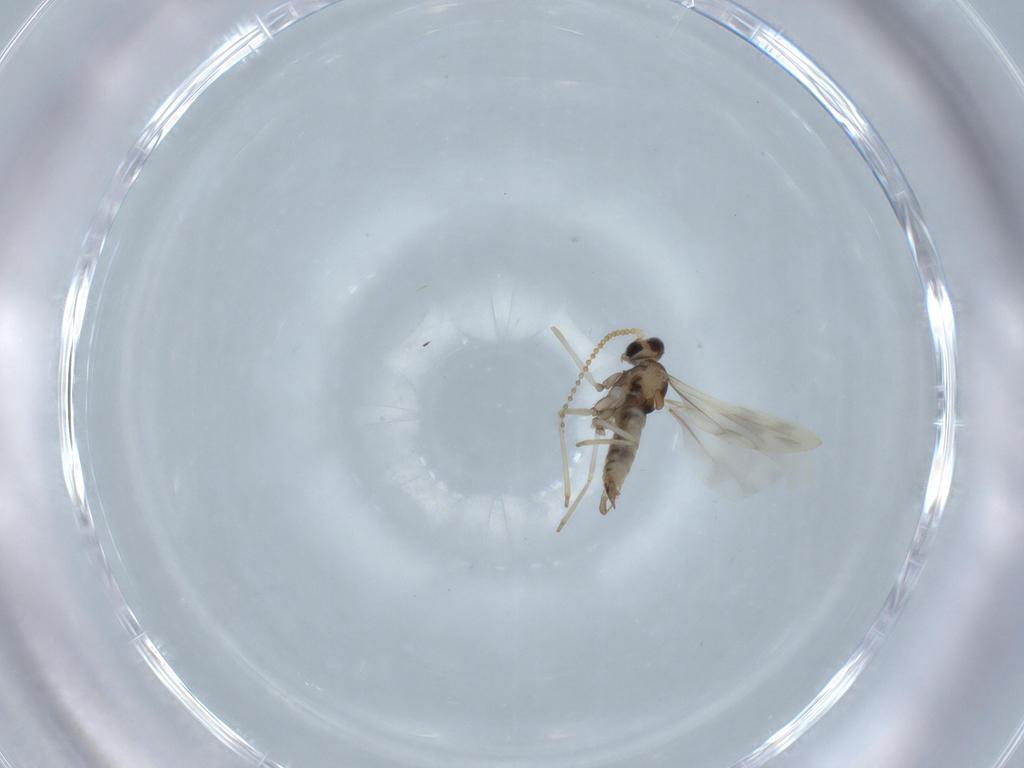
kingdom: Animalia
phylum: Arthropoda
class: Insecta
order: Diptera
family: Cecidomyiidae
